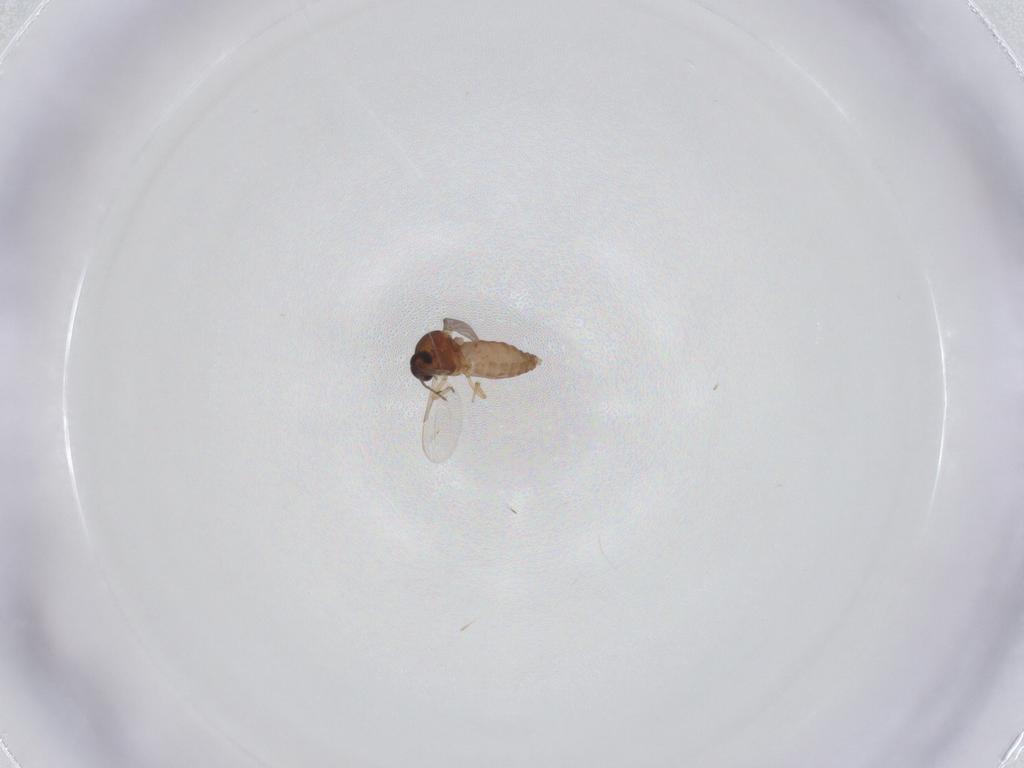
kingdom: Animalia
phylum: Arthropoda
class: Insecta
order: Diptera
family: Ceratopogonidae
